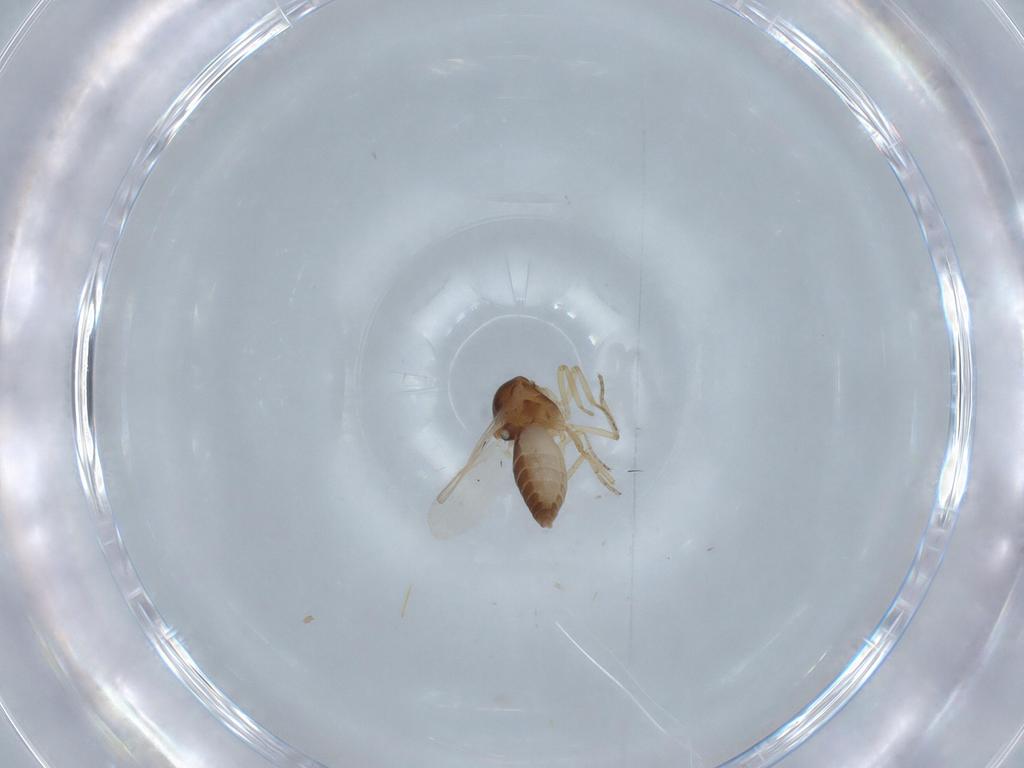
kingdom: Animalia
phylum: Arthropoda
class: Insecta
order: Diptera
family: Ceratopogonidae
